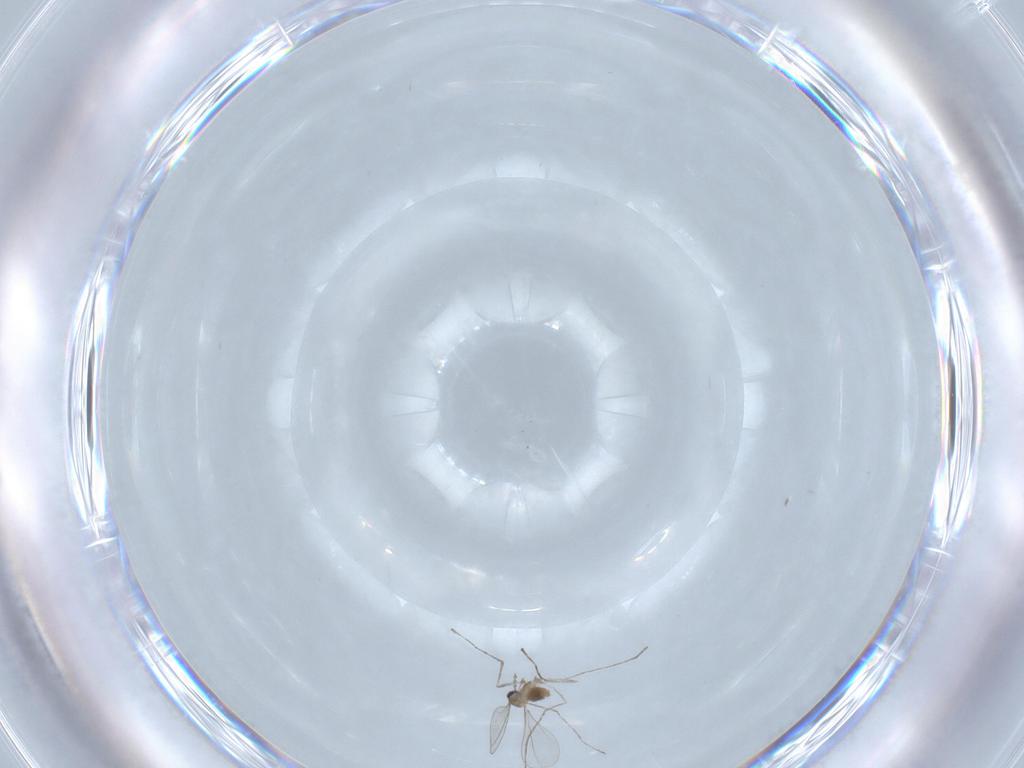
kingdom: Animalia
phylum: Arthropoda
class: Insecta
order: Diptera
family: Cecidomyiidae
